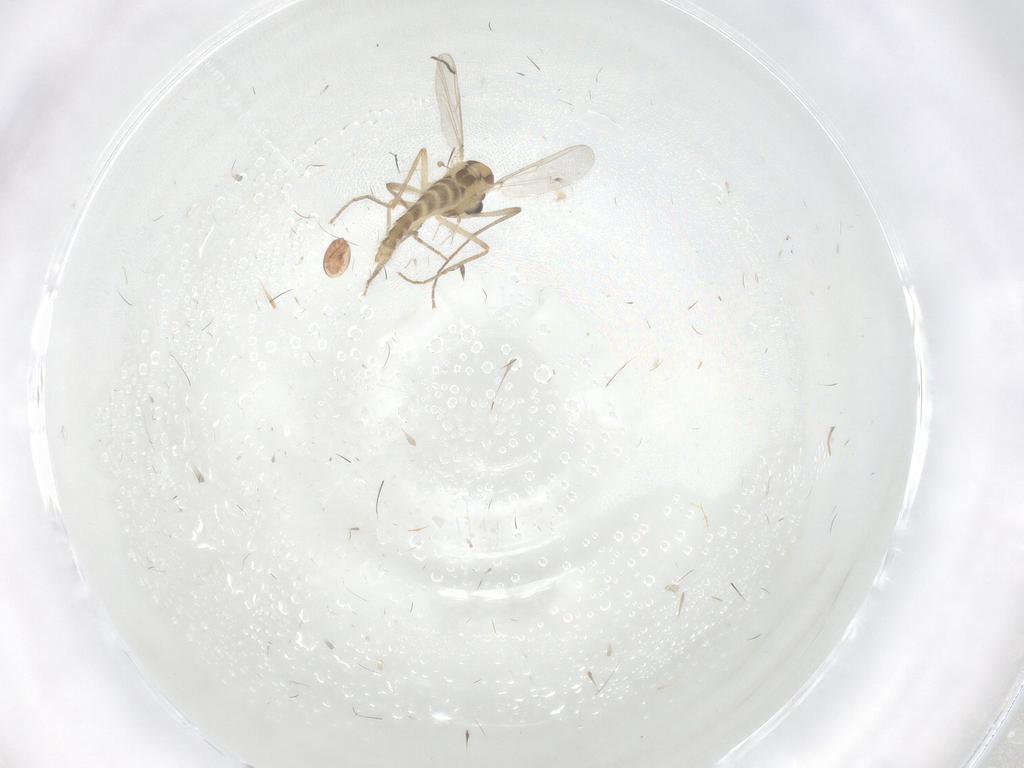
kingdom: Animalia
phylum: Arthropoda
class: Insecta
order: Diptera
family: Cecidomyiidae
